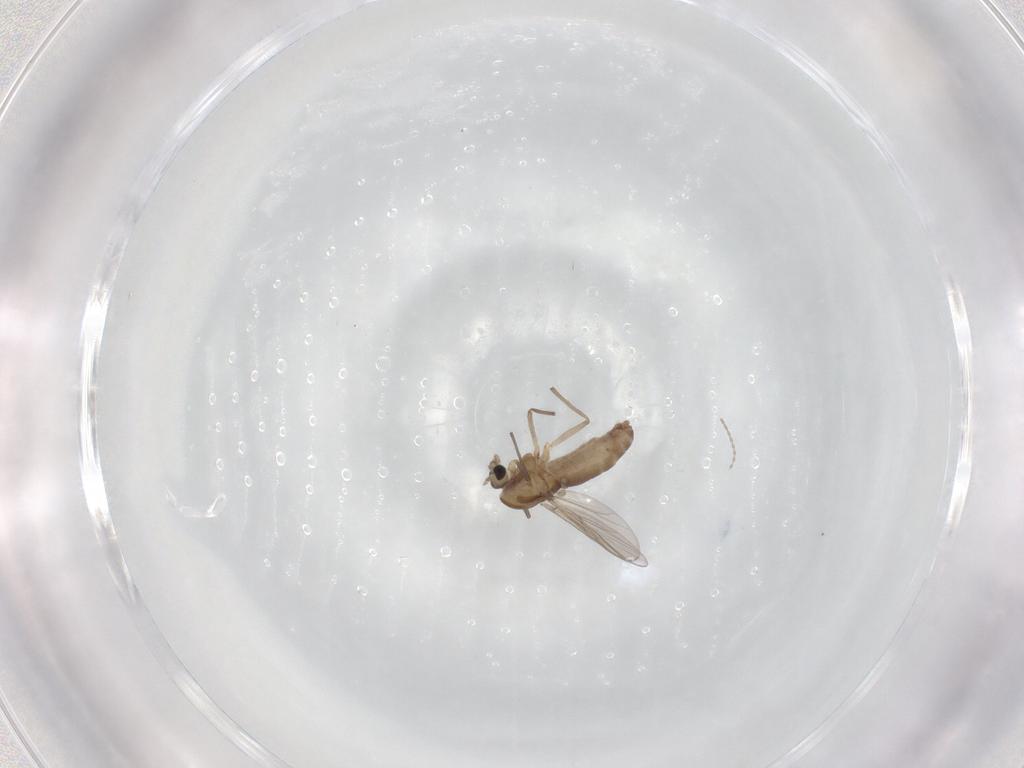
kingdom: Animalia
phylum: Arthropoda
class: Insecta
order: Diptera
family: Chironomidae
